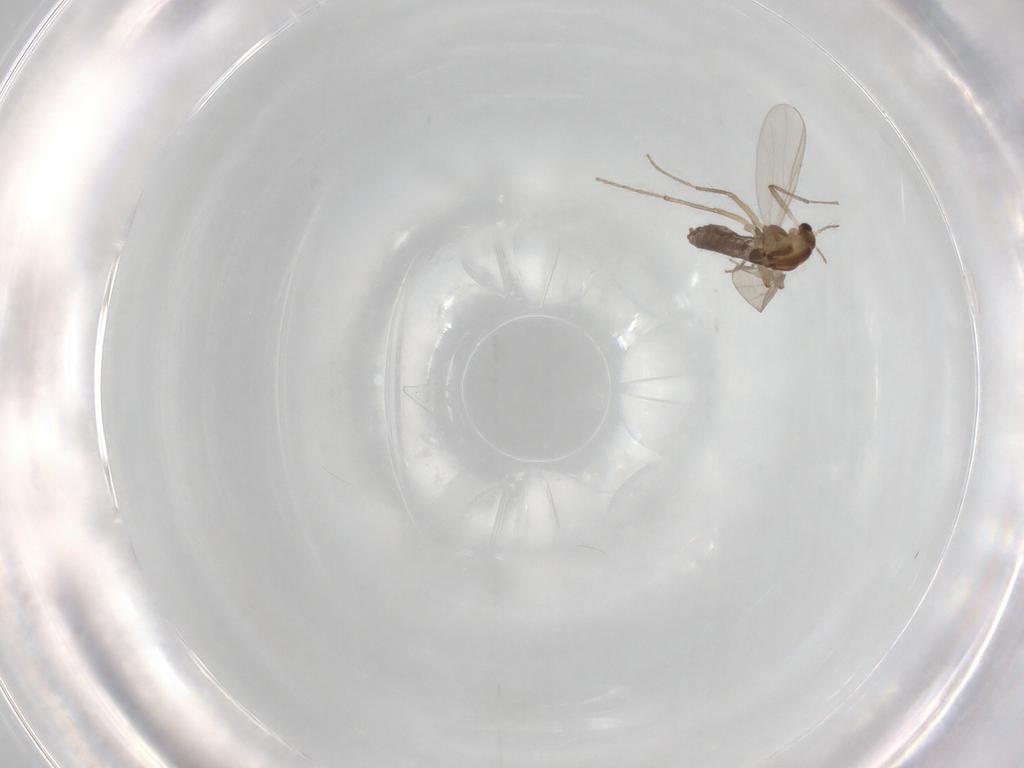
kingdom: Animalia
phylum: Arthropoda
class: Insecta
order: Diptera
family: Chironomidae
